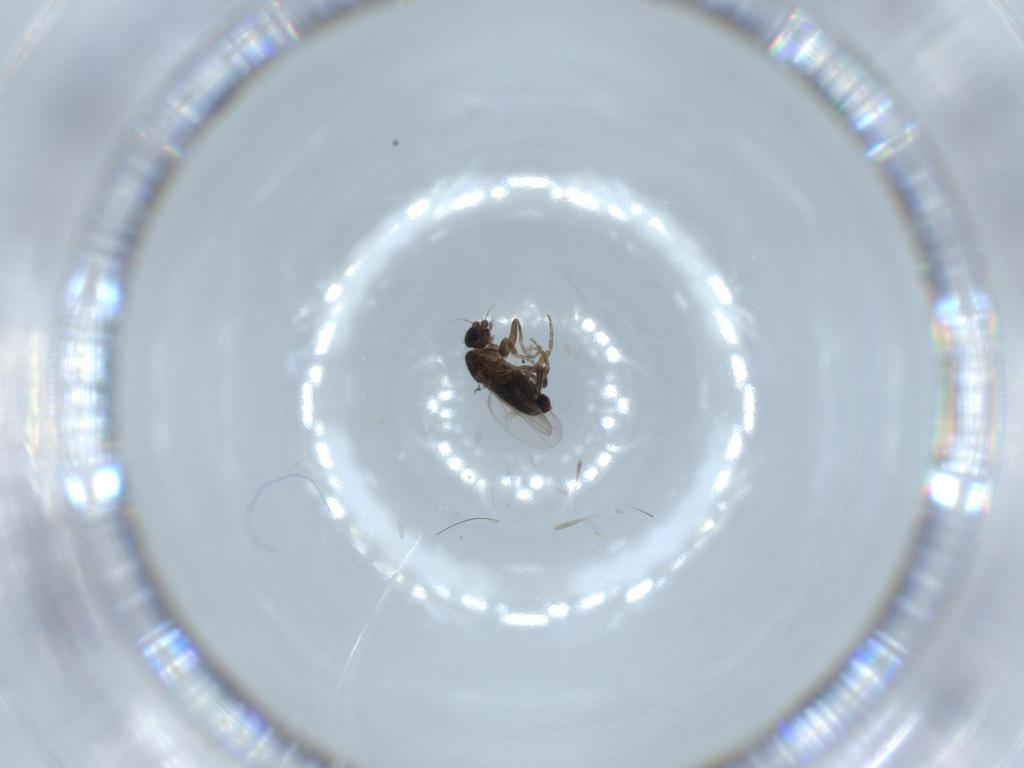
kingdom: Animalia
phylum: Arthropoda
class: Insecta
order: Diptera
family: Phoridae
